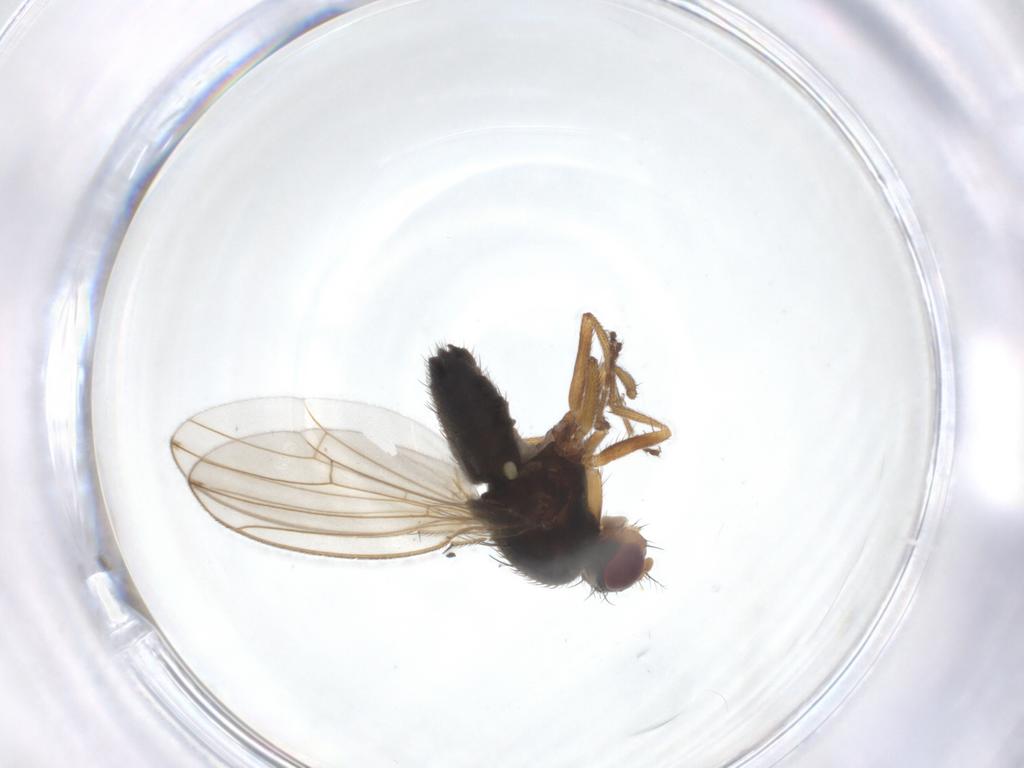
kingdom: Animalia
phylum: Arthropoda
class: Insecta
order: Diptera
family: Drosophilidae
